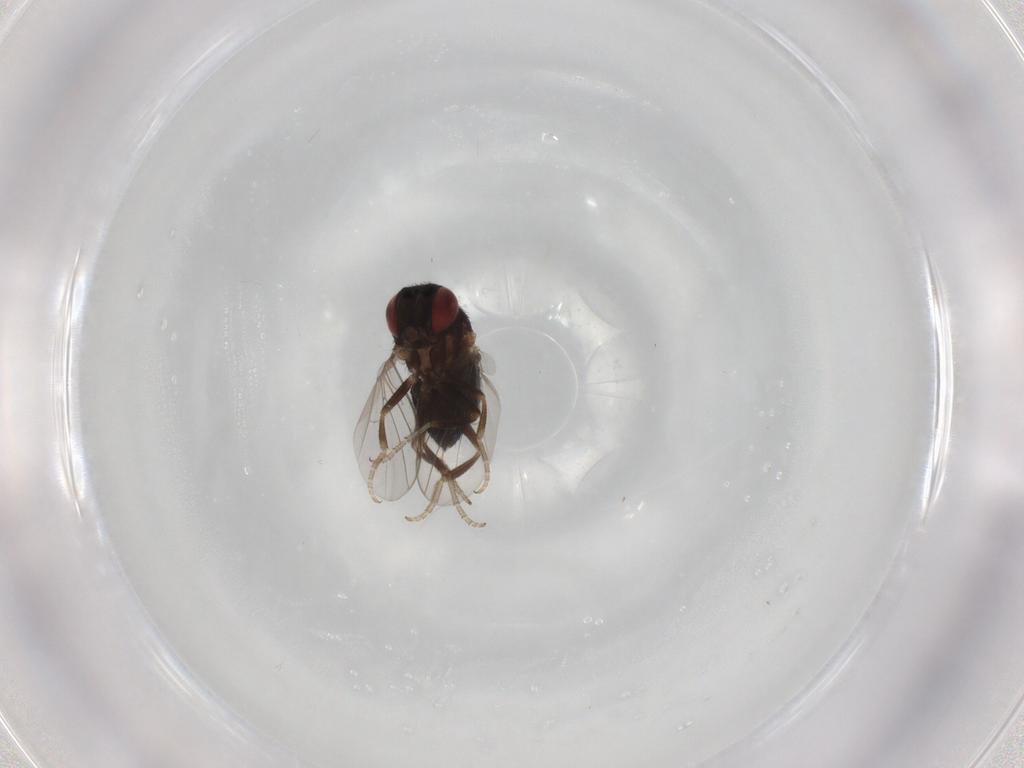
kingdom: Animalia
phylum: Arthropoda
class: Insecta
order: Diptera
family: Cryptochetidae
